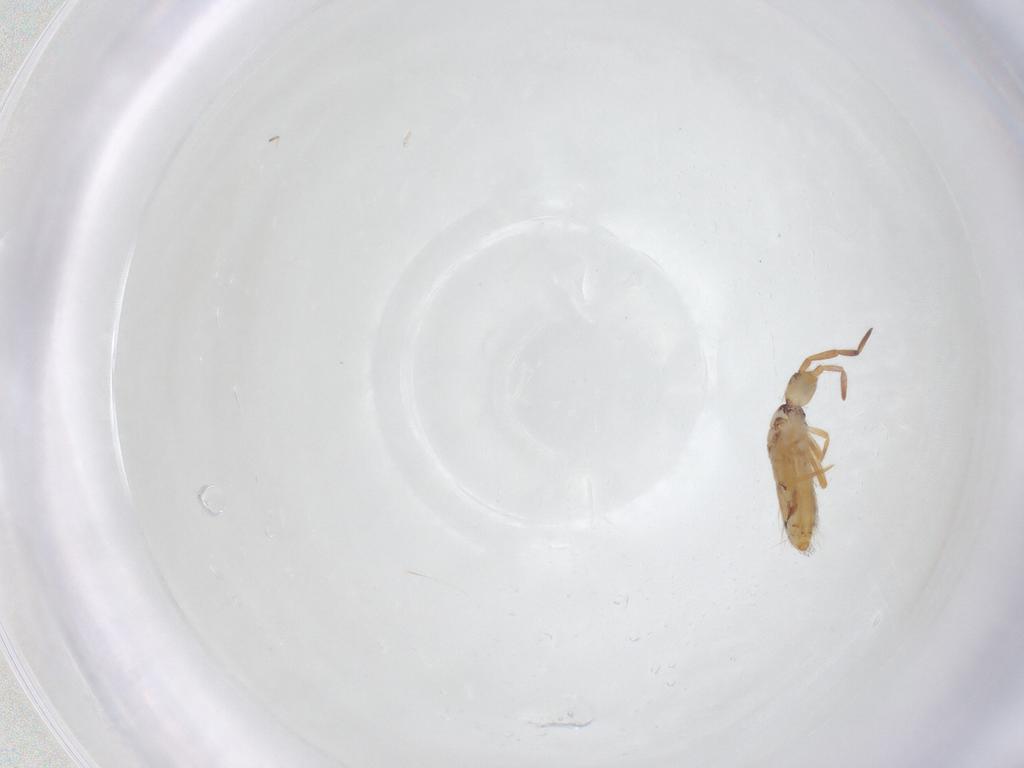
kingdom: Animalia
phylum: Arthropoda
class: Collembola
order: Entomobryomorpha
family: Entomobryidae
